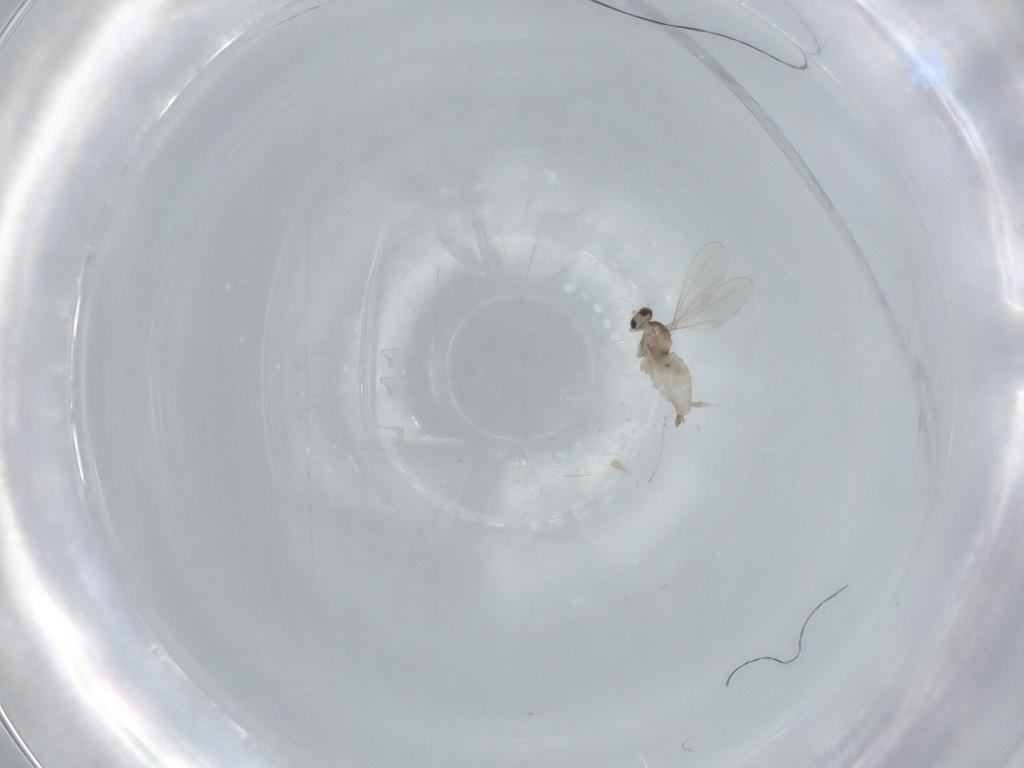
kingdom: Animalia
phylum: Arthropoda
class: Insecta
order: Diptera
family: Cecidomyiidae
